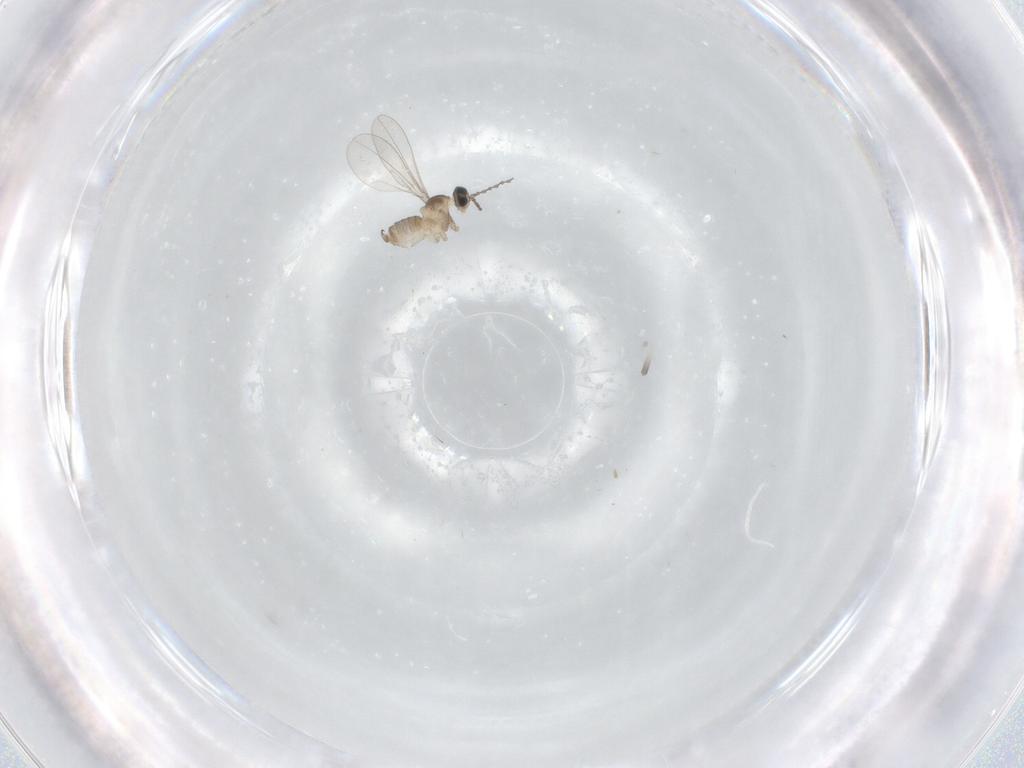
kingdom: Animalia
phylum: Arthropoda
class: Insecta
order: Diptera
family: Cecidomyiidae
